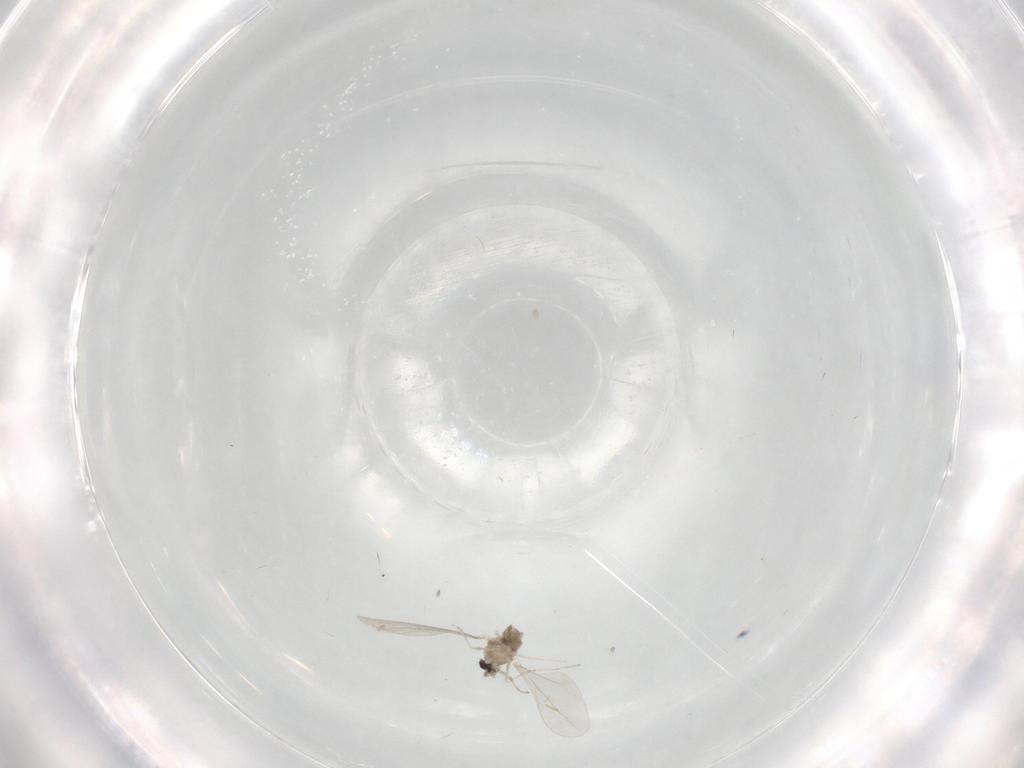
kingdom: Animalia
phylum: Arthropoda
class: Insecta
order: Diptera
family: Cecidomyiidae
